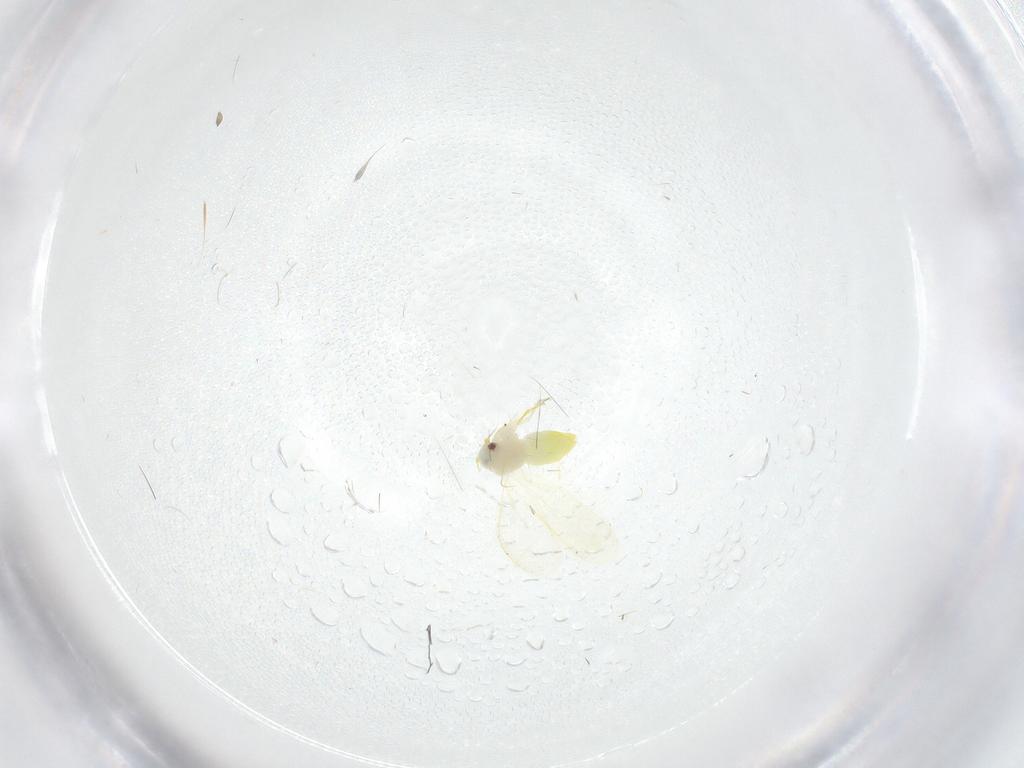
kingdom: Animalia
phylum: Arthropoda
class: Insecta
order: Hemiptera
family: Aleyrodidae
